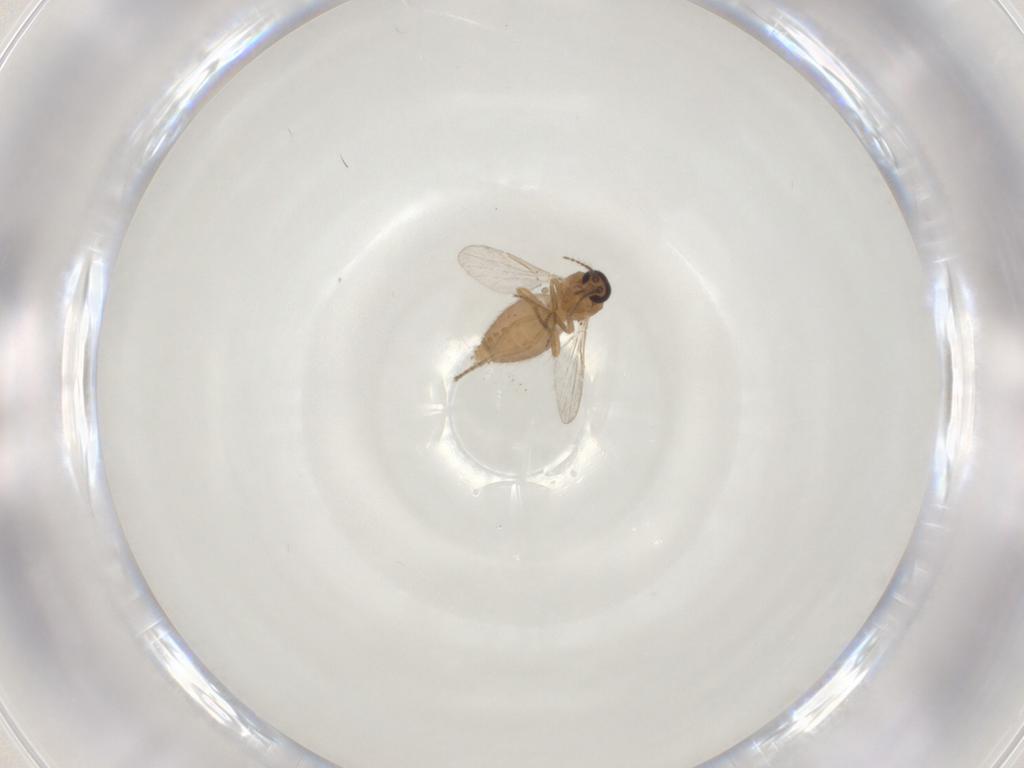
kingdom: Animalia
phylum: Arthropoda
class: Insecta
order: Diptera
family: Ceratopogonidae
